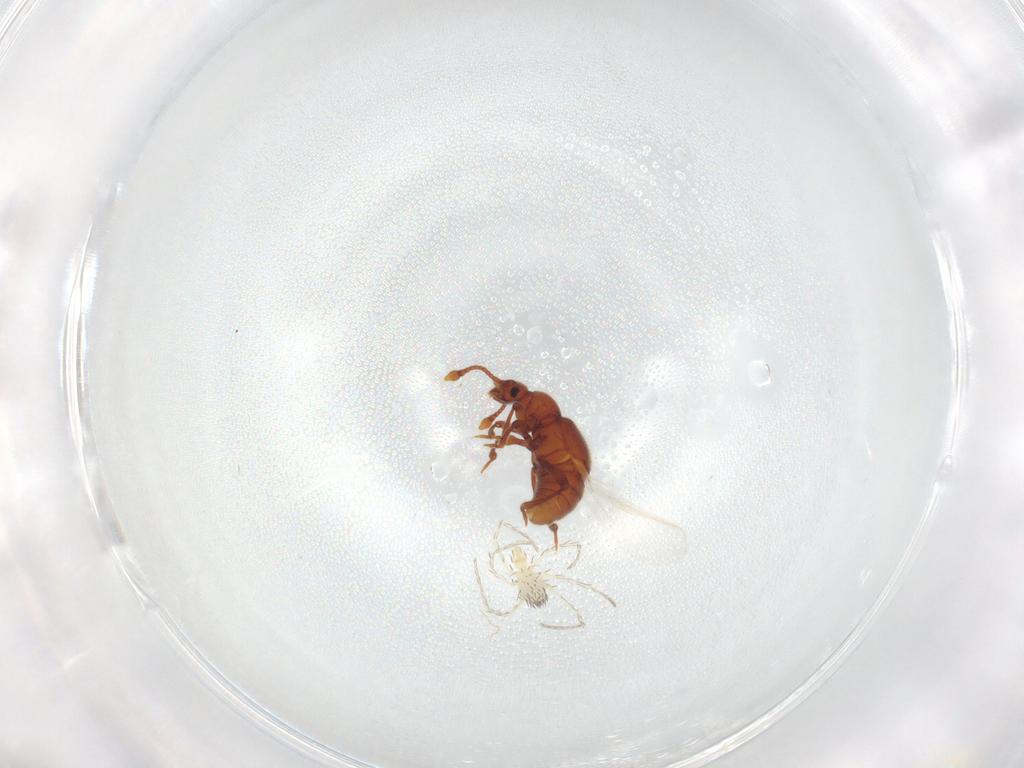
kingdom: Animalia
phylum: Arthropoda
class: Insecta
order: Coleoptera
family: Staphylinidae
